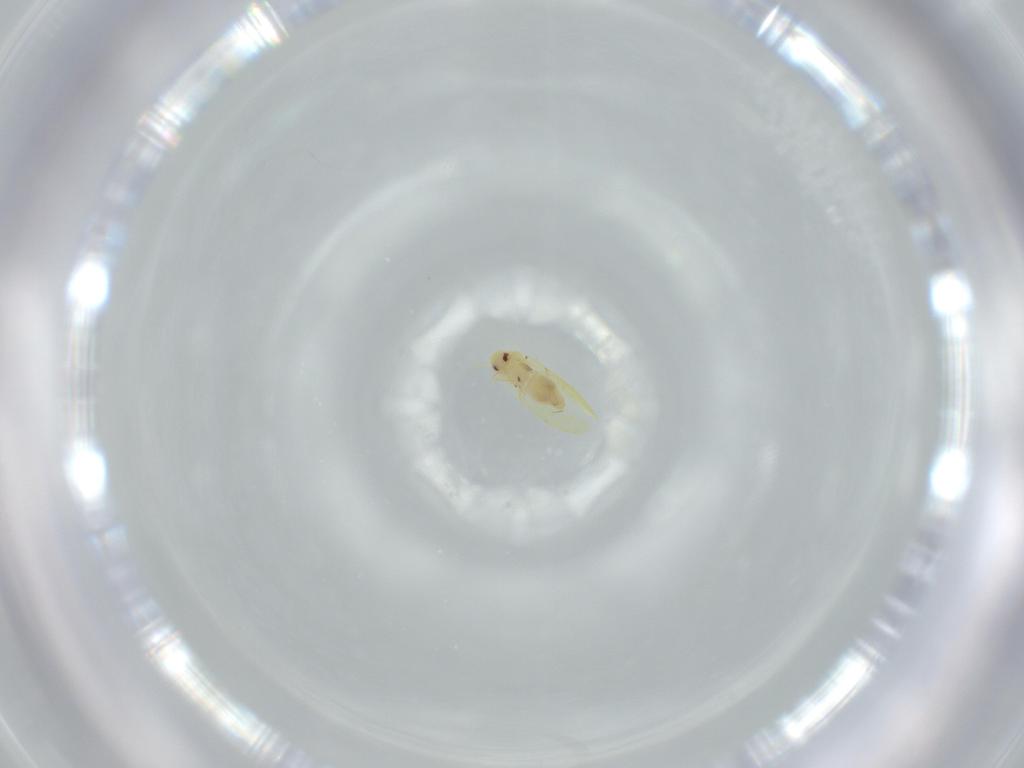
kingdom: Animalia
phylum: Arthropoda
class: Insecta
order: Hemiptera
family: Aleyrodidae
